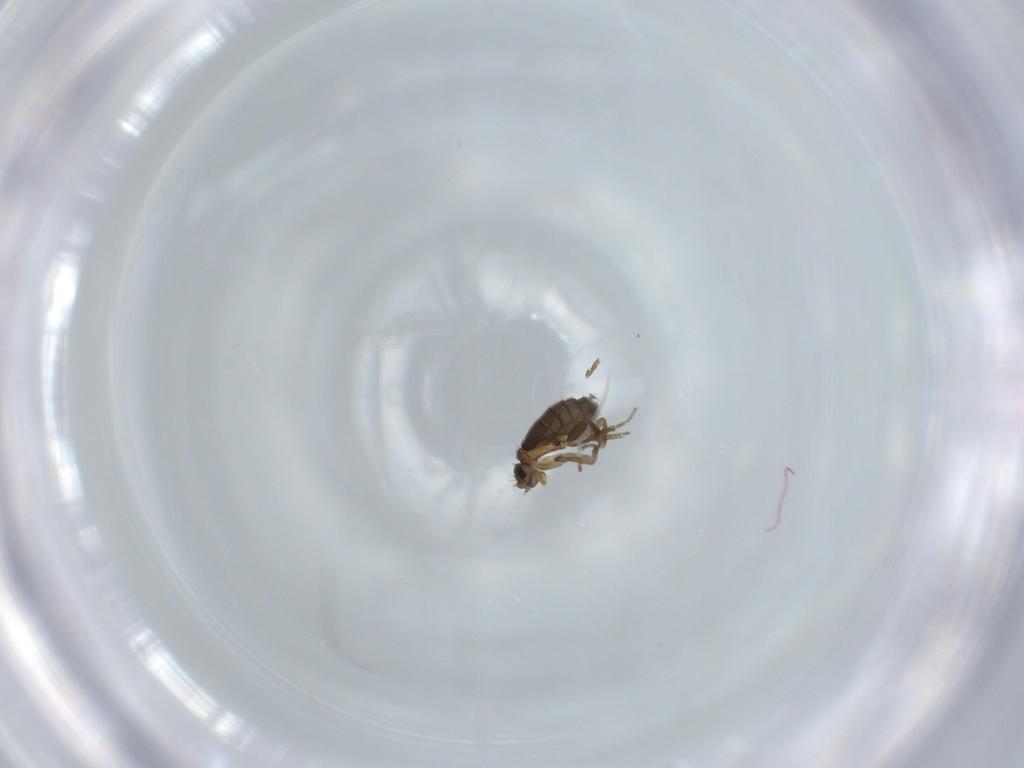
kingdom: Animalia
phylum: Arthropoda
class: Insecta
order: Diptera
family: Phoridae
